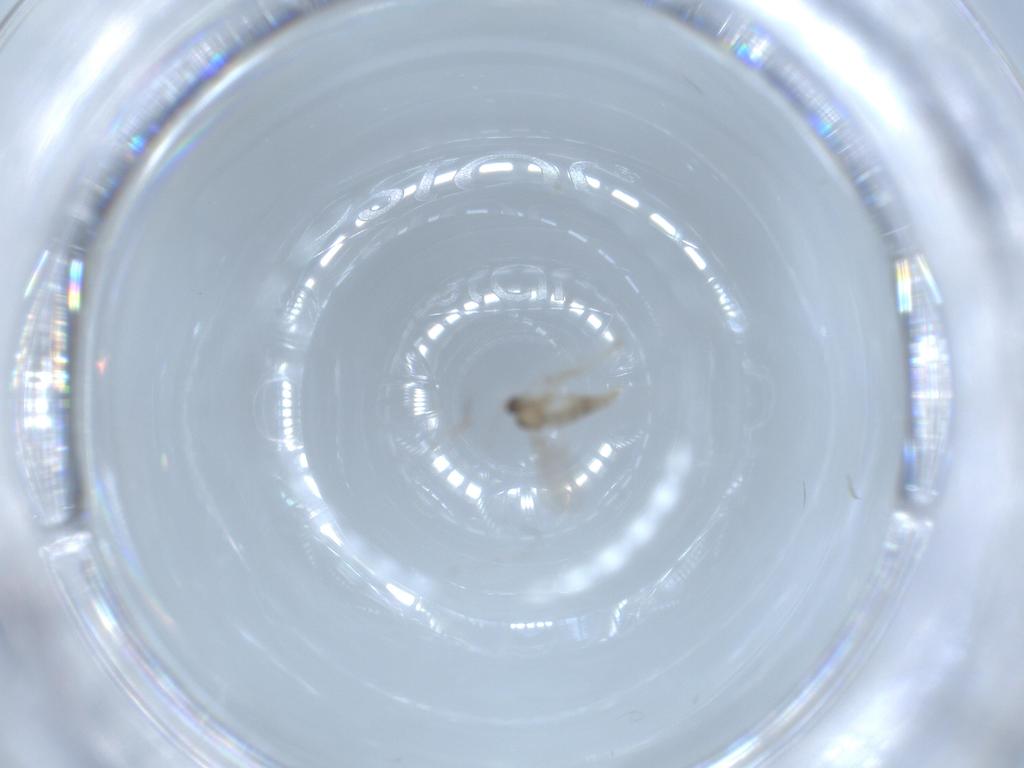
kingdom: Animalia
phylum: Arthropoda
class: Insecta
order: Diptera
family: Cecidomyiidae
